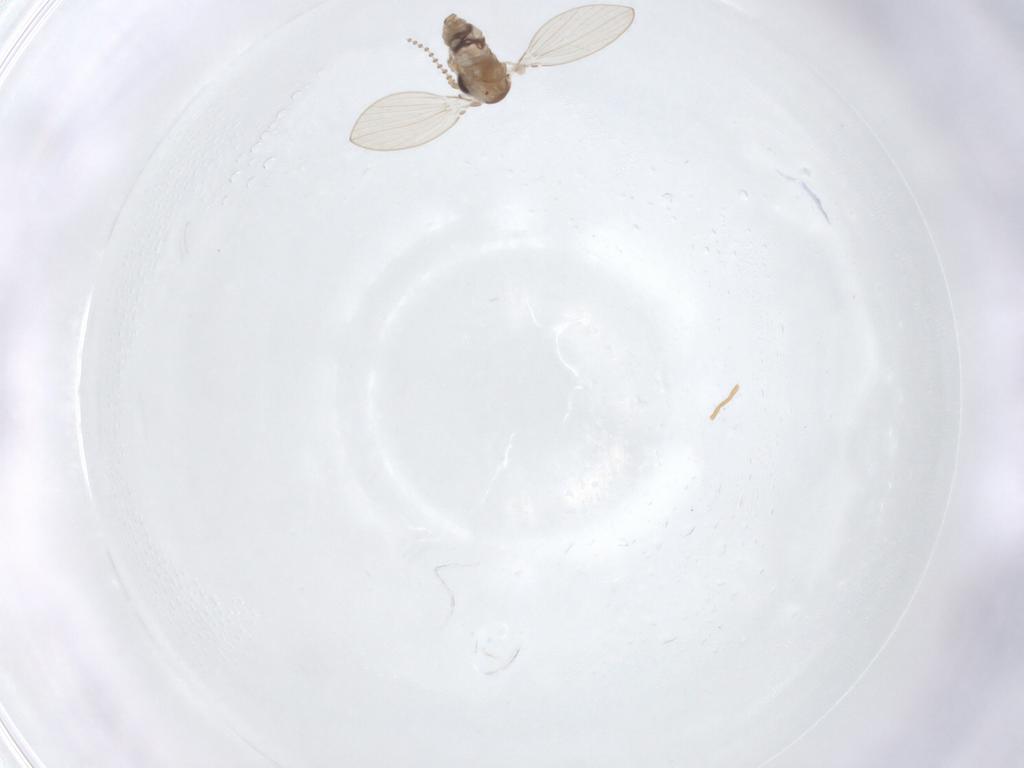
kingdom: Animalia
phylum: Arthropoda
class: Insecta
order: Diptera
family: Psychodidae
